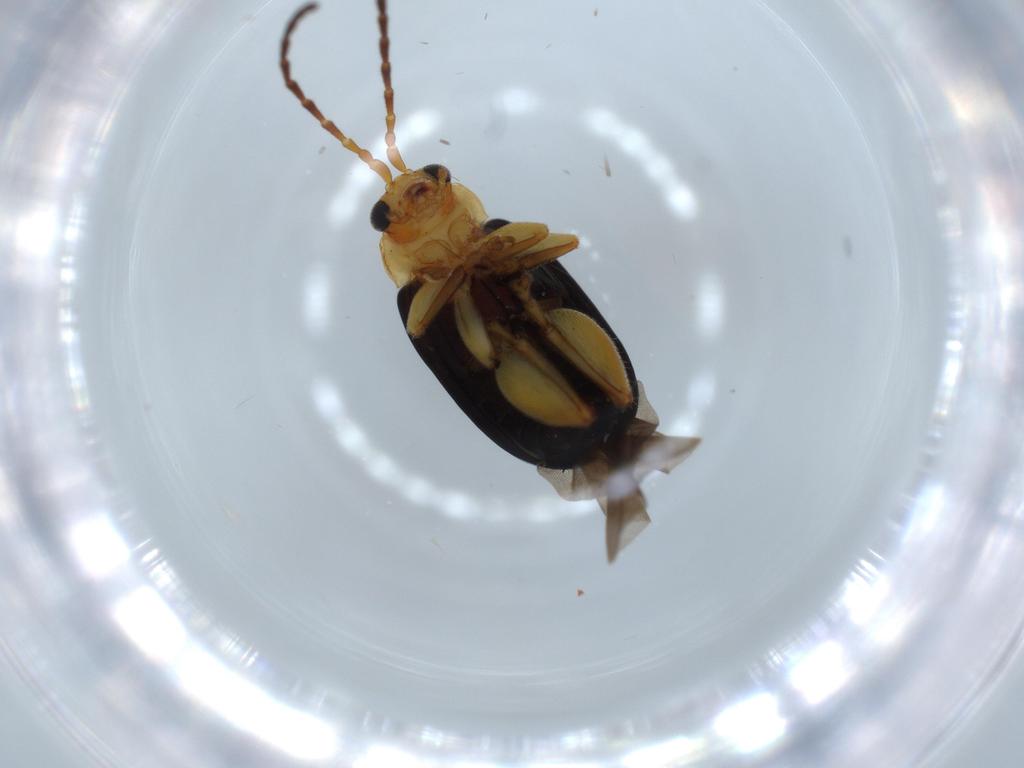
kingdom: Animalia
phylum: Arthropoda
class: Insecta
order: Coleoptera
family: Chrysomelidae
